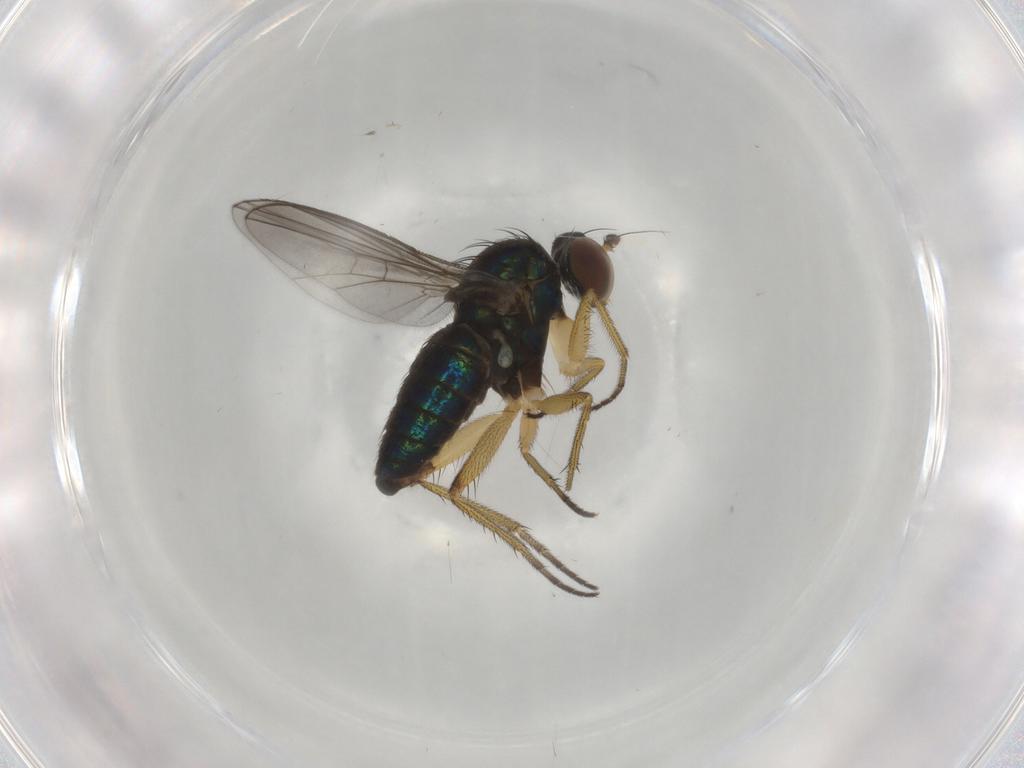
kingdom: Animalia
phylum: Arthropoda
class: Insecta
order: Diptera
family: Dolichopodidae
